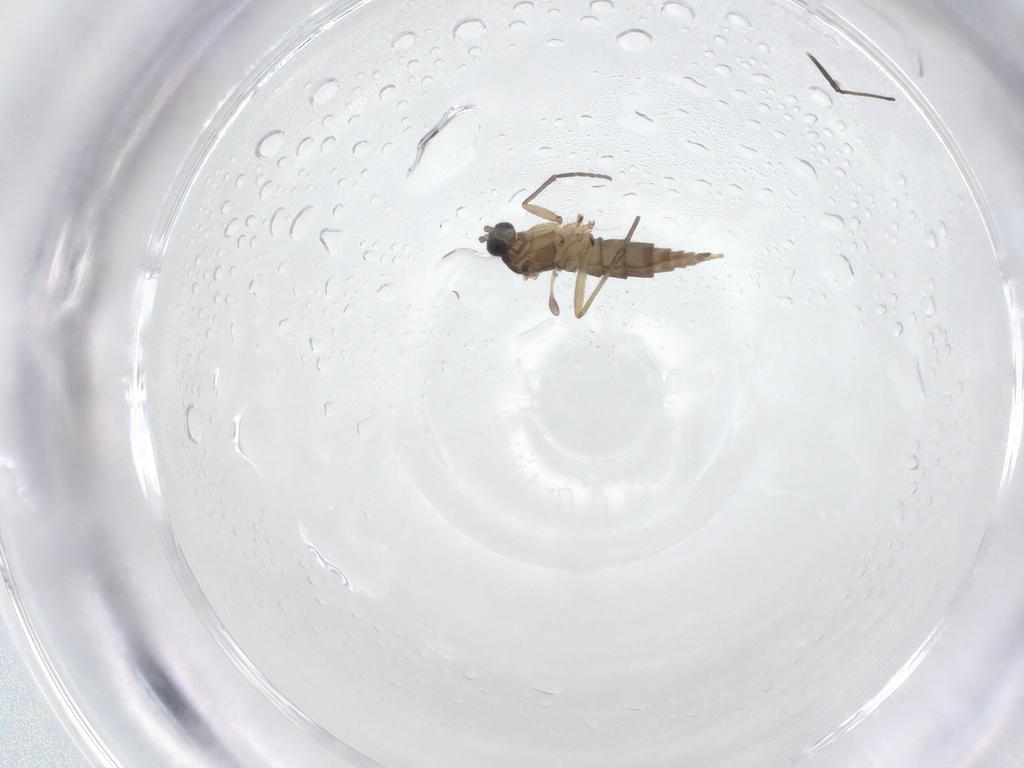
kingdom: Animalia
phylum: Arthropoda
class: Insecta
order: Diptera
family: Sciaridae
